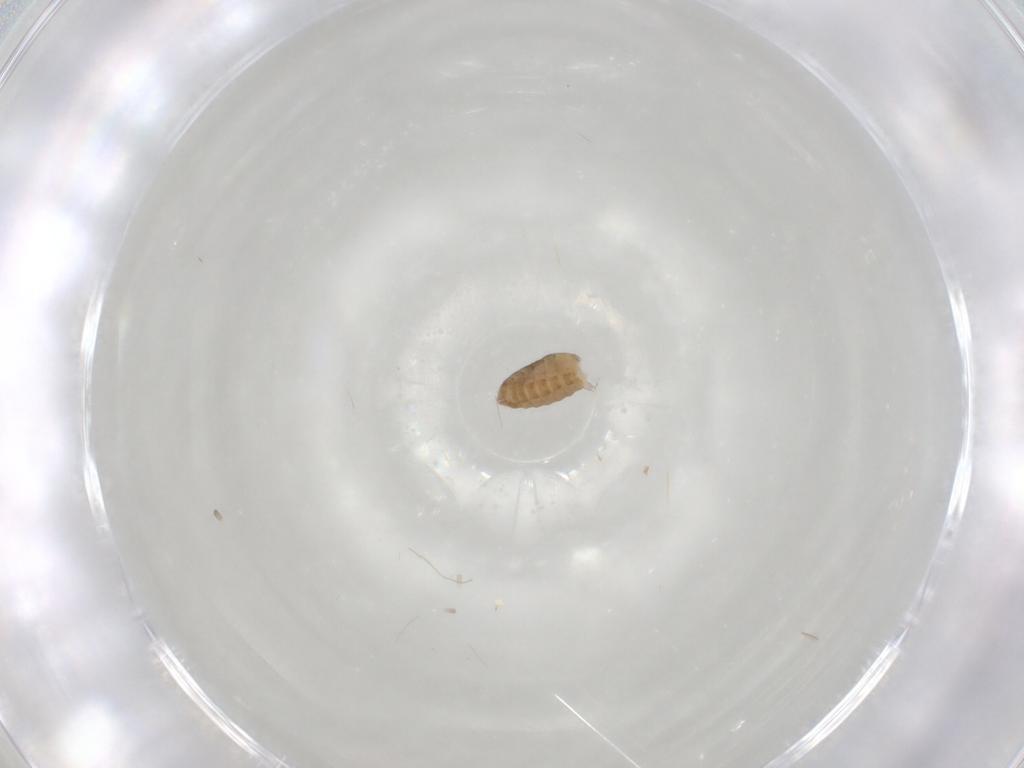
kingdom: Animalia
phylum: Arthropoda
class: Insecta
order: Diptera
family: Ceratopogonidae
